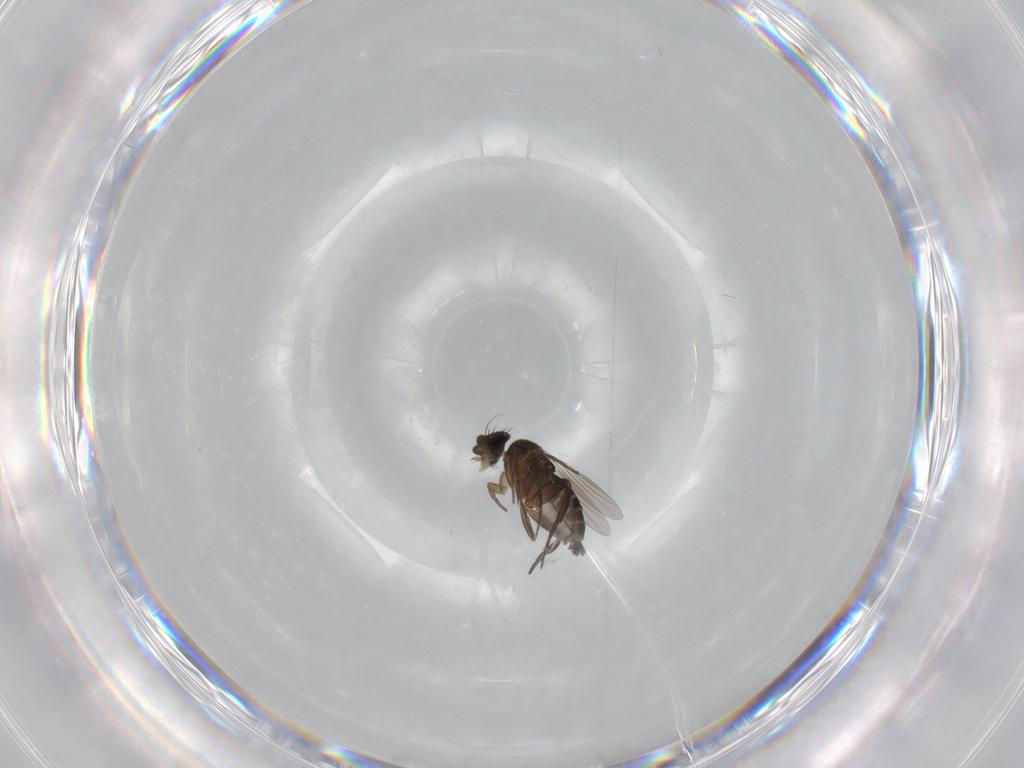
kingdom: Animalia
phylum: Arthropoda
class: Insecta
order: Diptera
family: Phoridae
